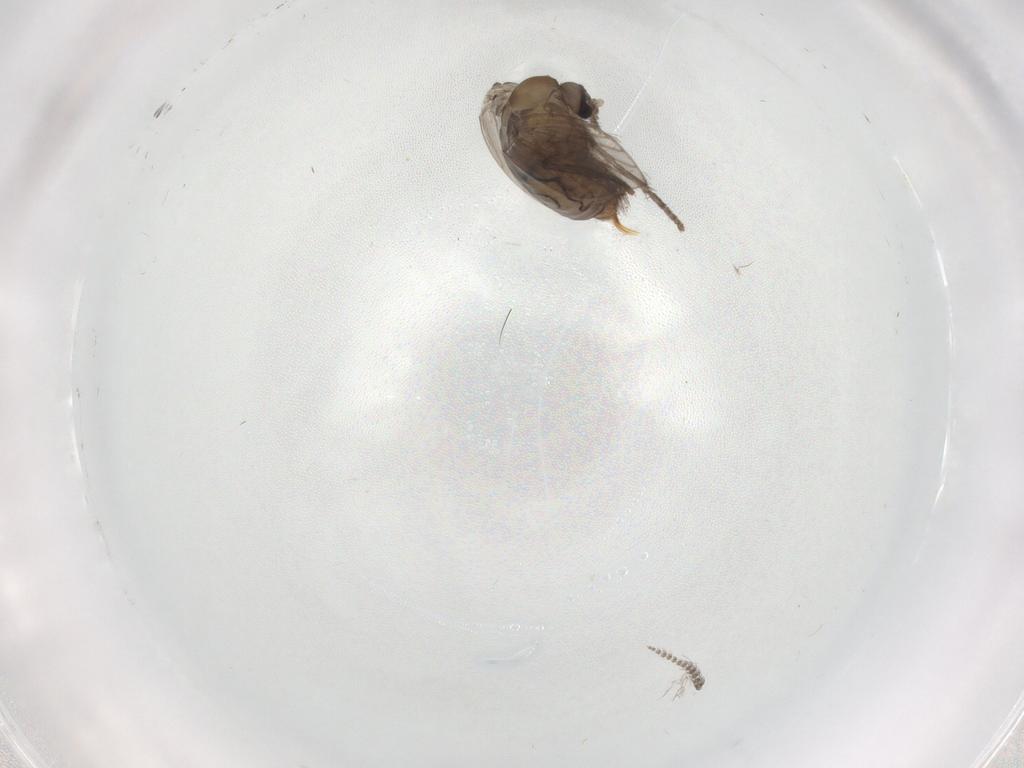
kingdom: Animalia
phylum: Arthropoda
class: Insecta
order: Diptera
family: Psychodidae
